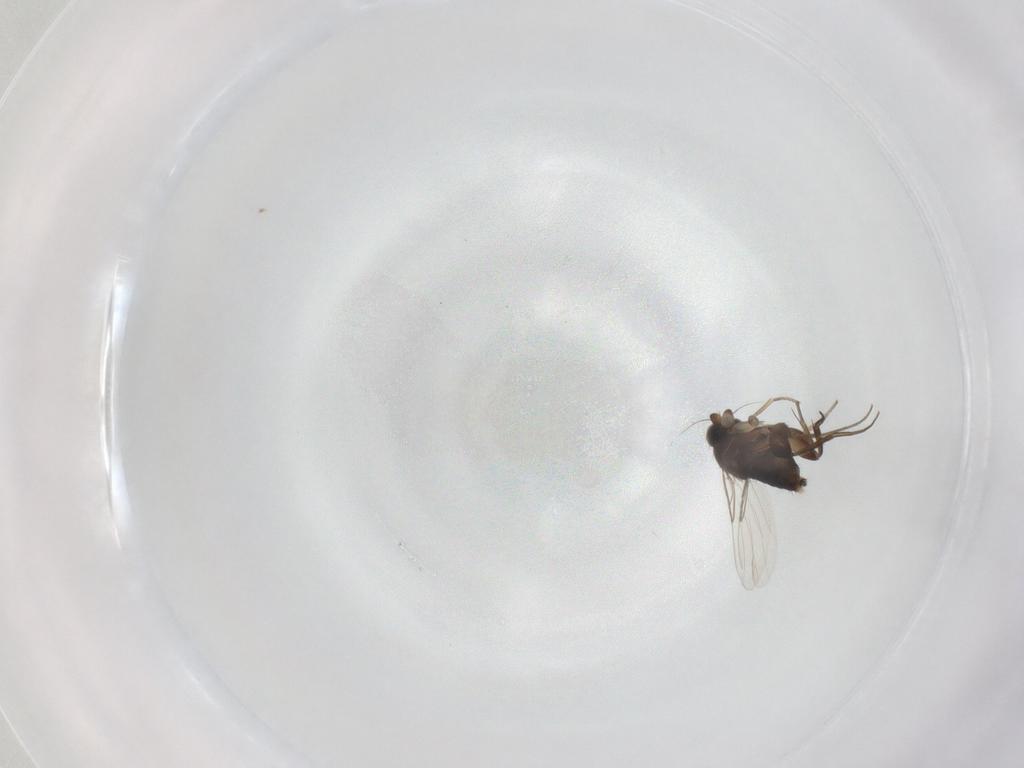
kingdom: Animalia
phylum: Arthropoda
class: Insecta
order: Diptera
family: Phoridae
